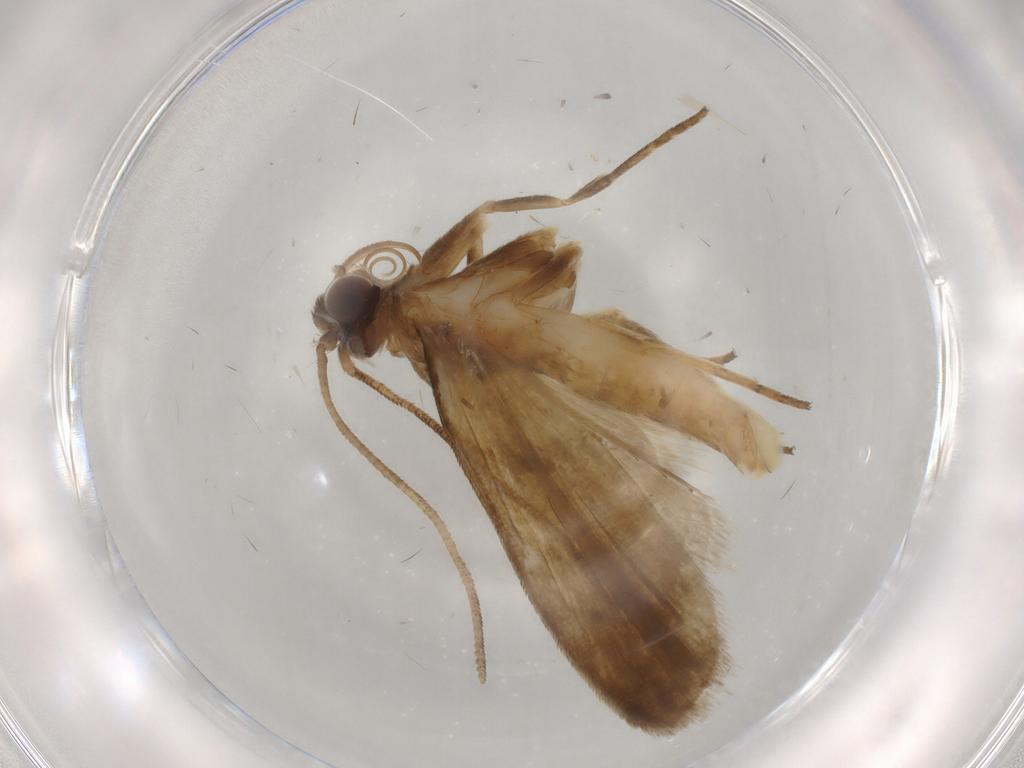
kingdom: Animalia
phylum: Arthropoda
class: Insecta
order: Lepidoptera
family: Noctuidae
